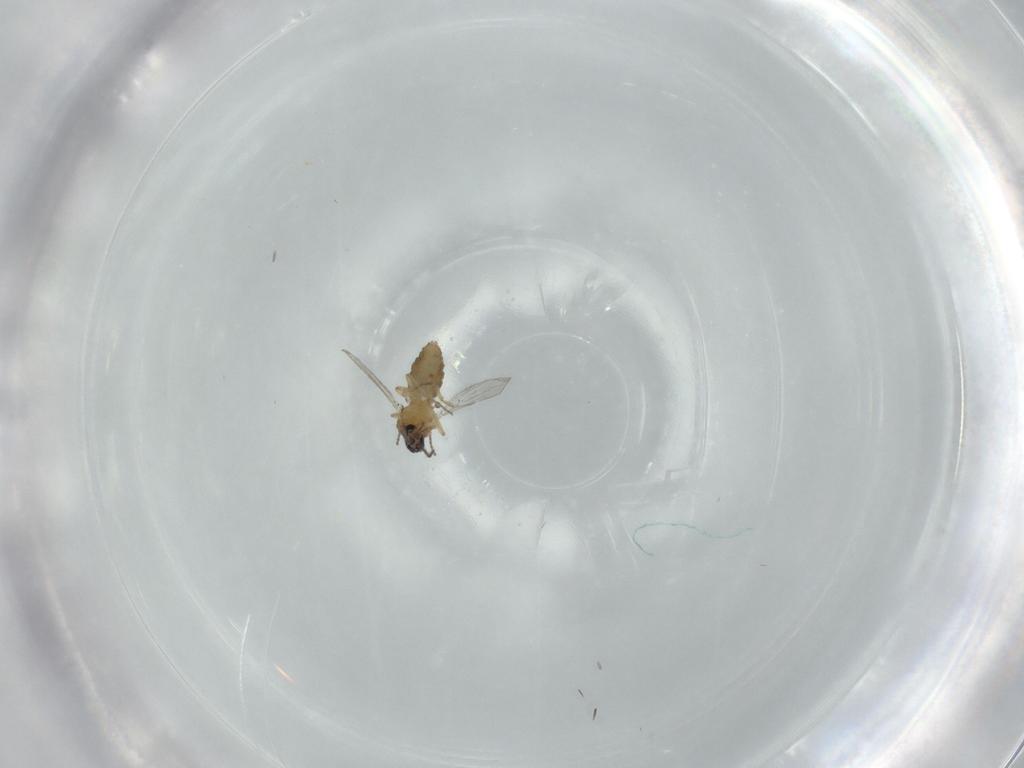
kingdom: Animalia
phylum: Arthropoda
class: Insecta
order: Diptera
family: Ceratopogonidae
